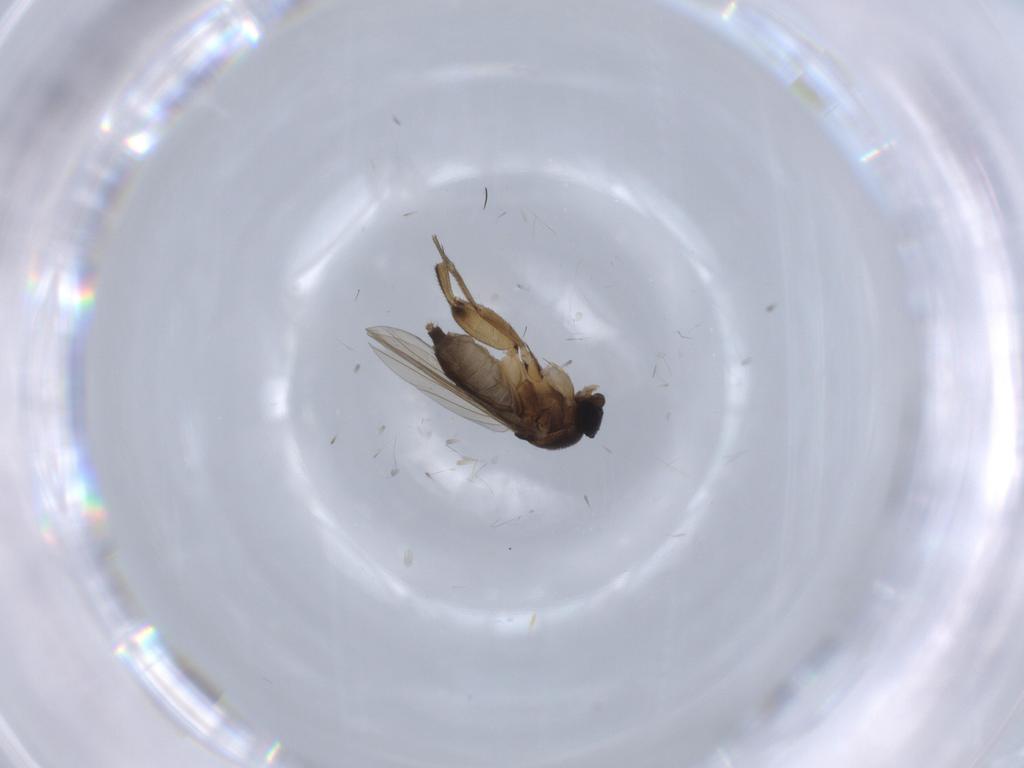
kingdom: Animalia
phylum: Arthropoda
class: Insecta
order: Diptera
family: Cecidomyiidae
